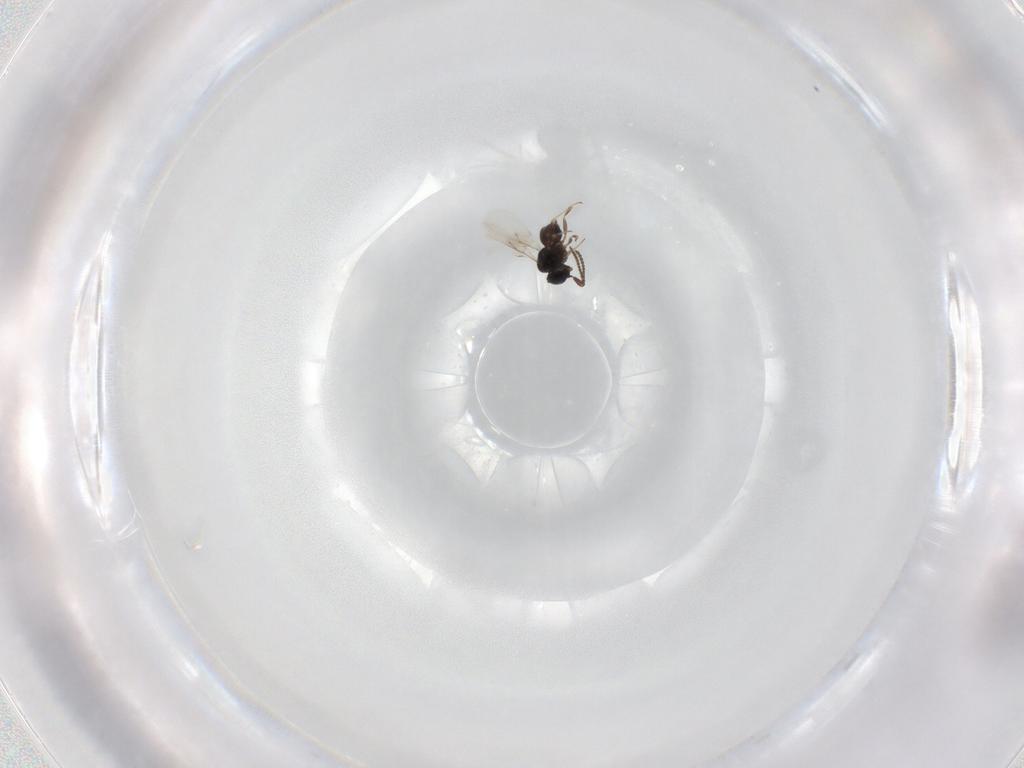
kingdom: Animalia
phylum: Arthropoda
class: Insecta
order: Hymenoptera
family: Scelionidae
